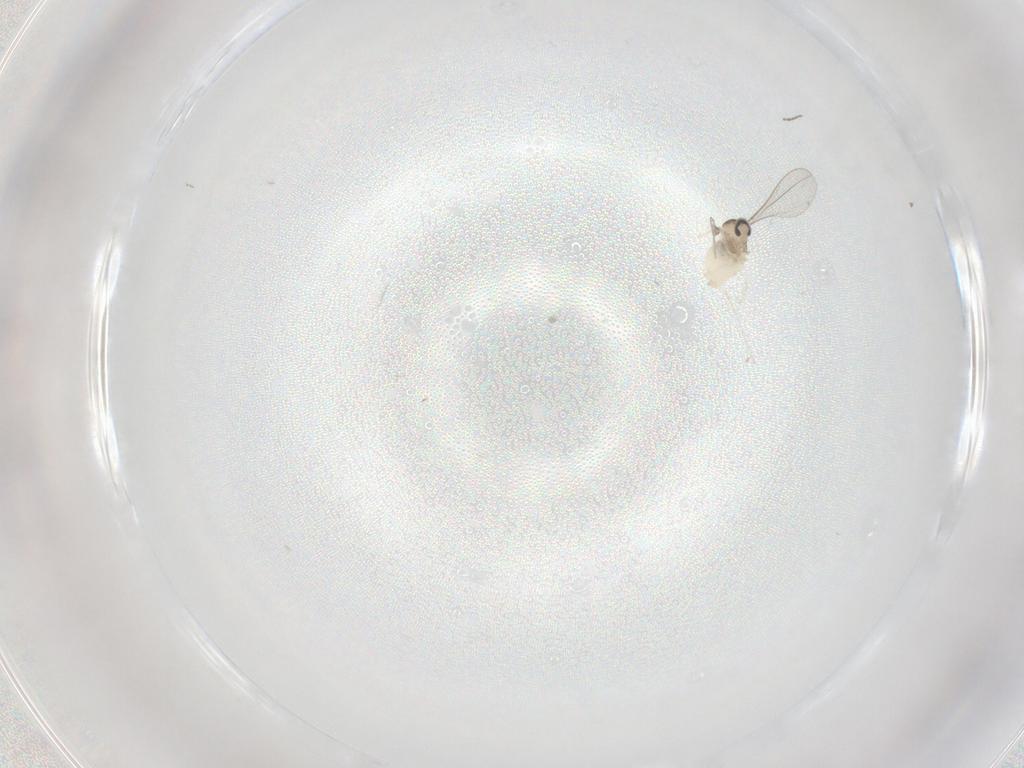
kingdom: Animalia
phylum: Arthropoda
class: Insecta
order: Diptera
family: Cecidomyiidae
